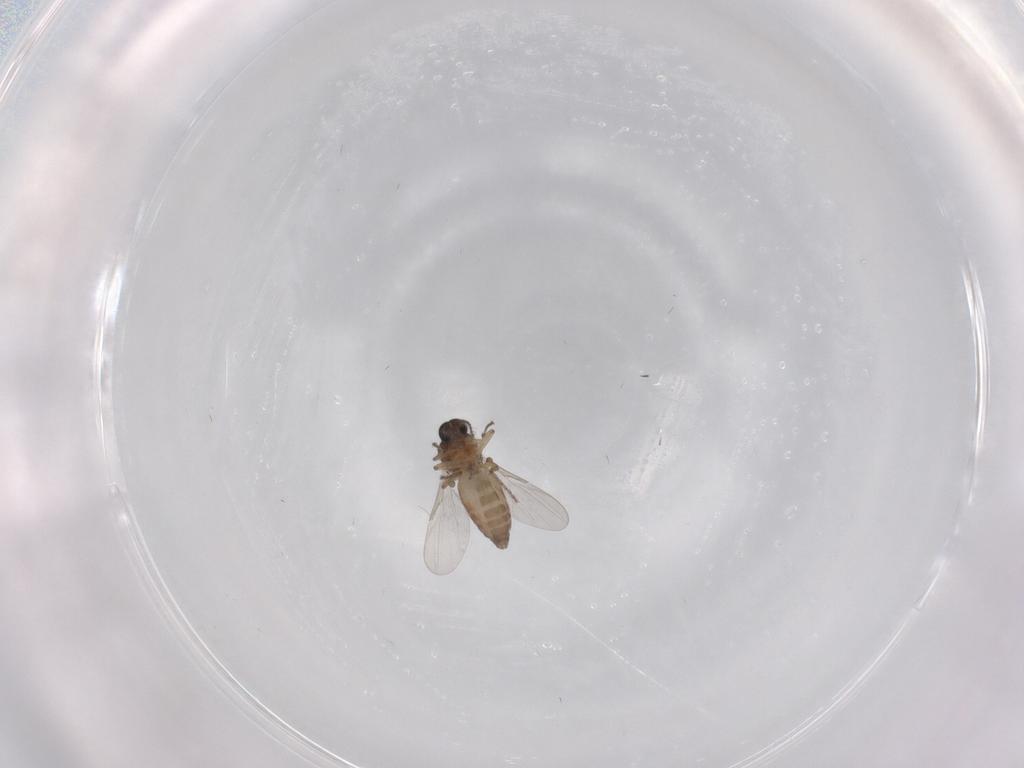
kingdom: Animalia
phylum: Arthropoda
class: Insecta
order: Diptera
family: Ceratopogonidae
